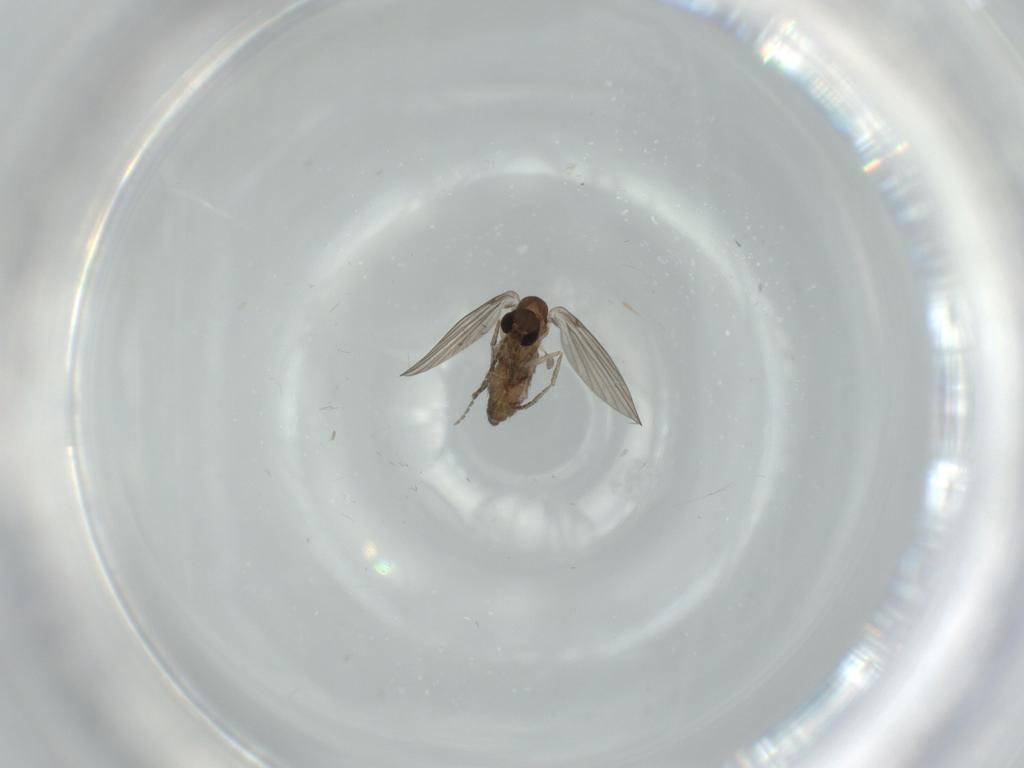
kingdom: Animalia
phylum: Arthropoda
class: Insecta
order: Diptera
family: Psychodidae
